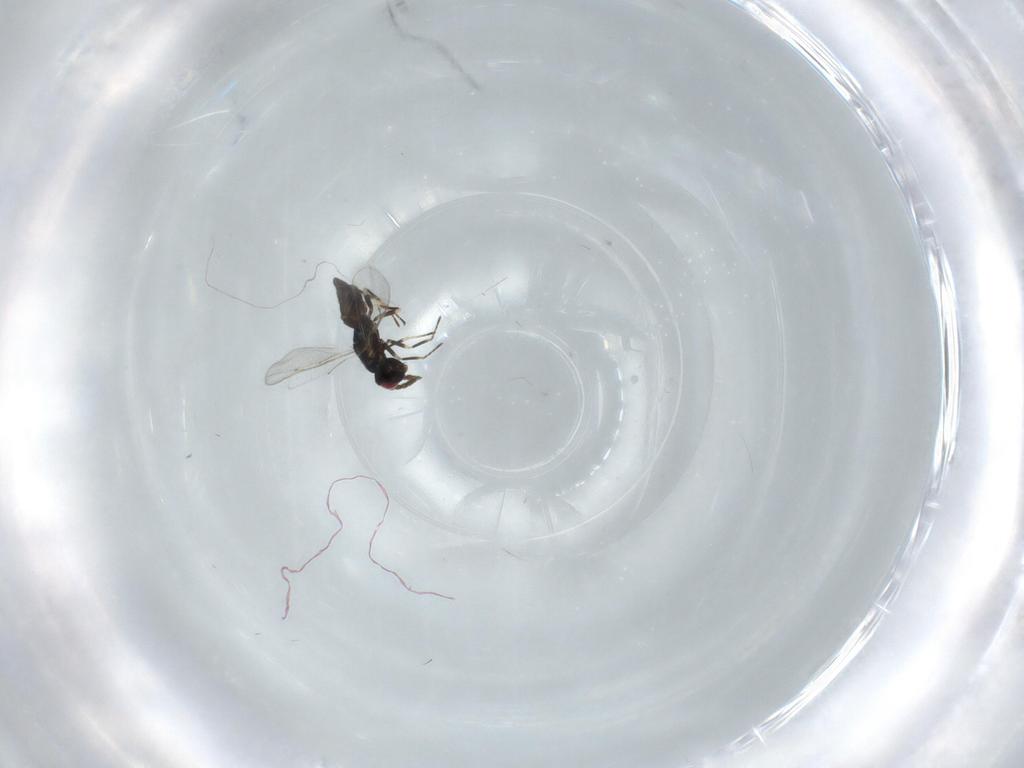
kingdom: Animalia
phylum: Arthropoda
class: Insecta
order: Hymenoptera
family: Eulophidae
